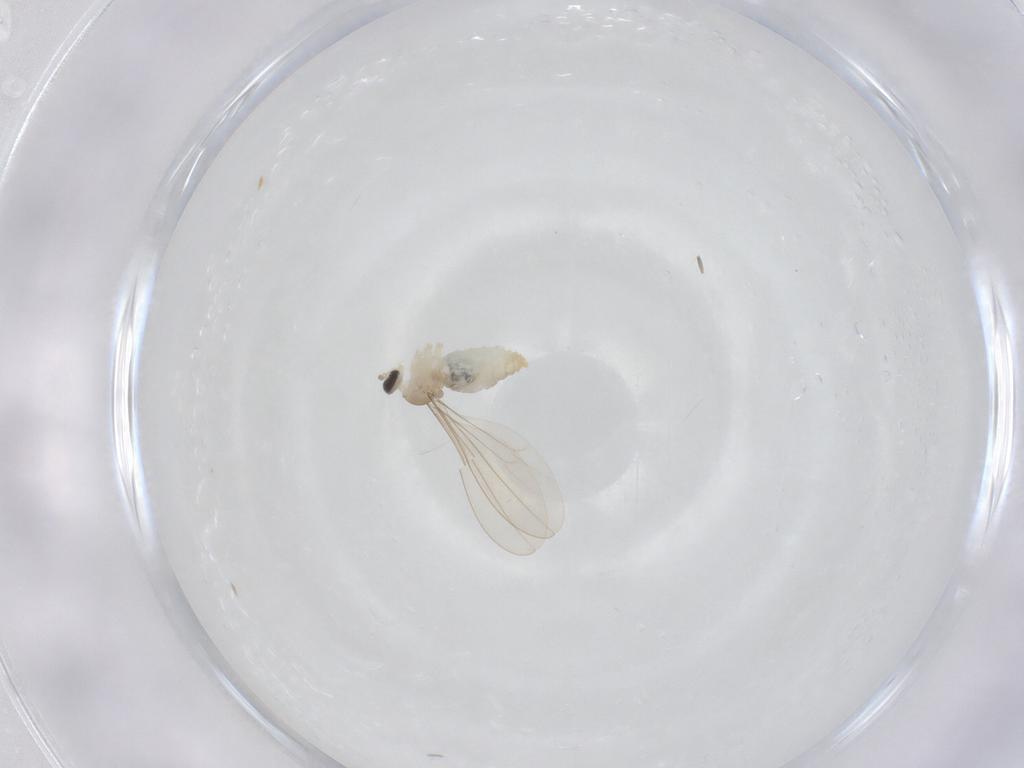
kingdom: Animalia
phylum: Arthropoda
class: Insecta
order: Diptera
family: Cecidomyiidae
